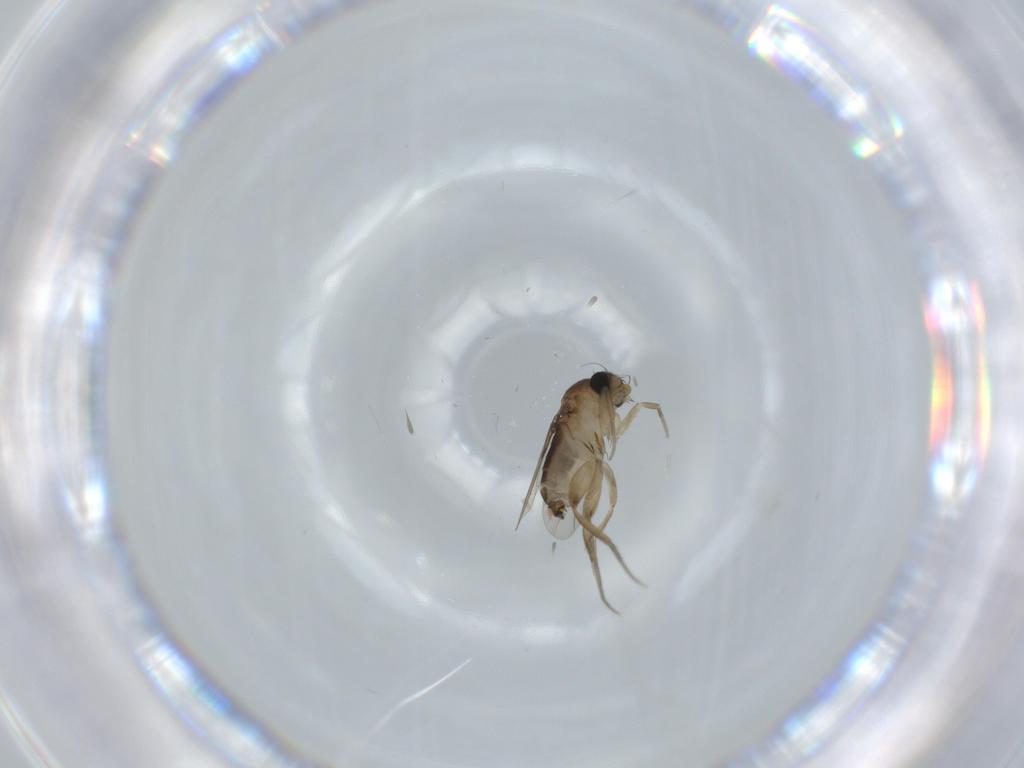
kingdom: Animalia
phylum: Arthropoda
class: Insecta
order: Diptera
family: Phoridae
